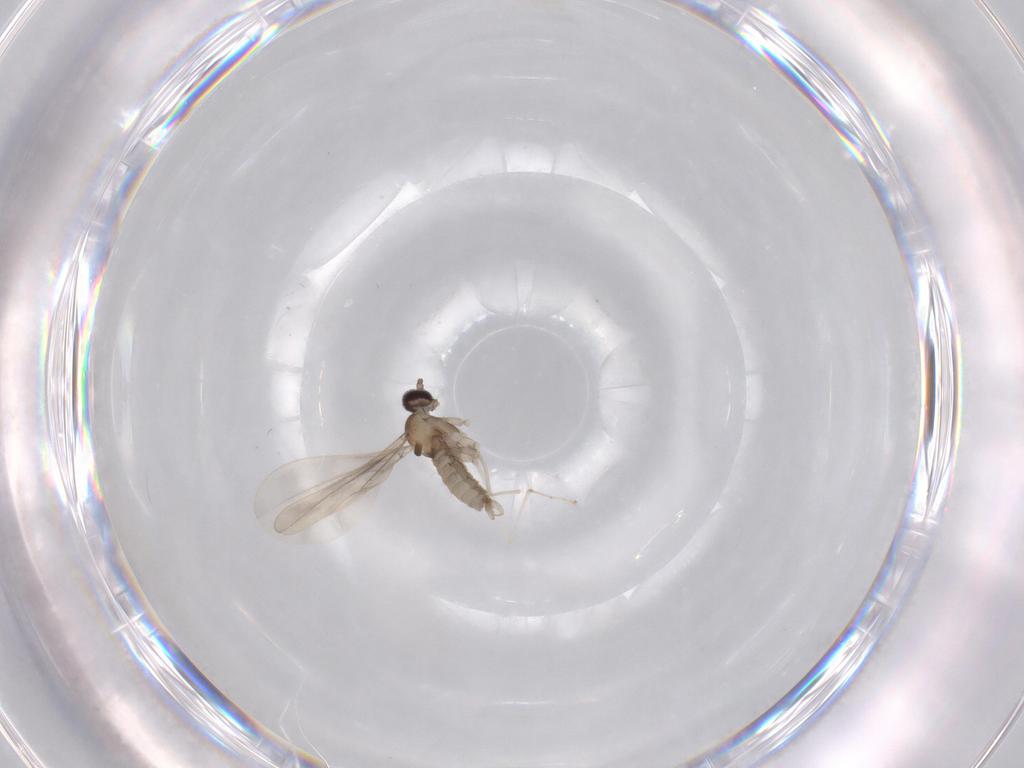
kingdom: Animalia
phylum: Arthropoda
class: Insecta
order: Diptera
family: Cecidomyiidae
